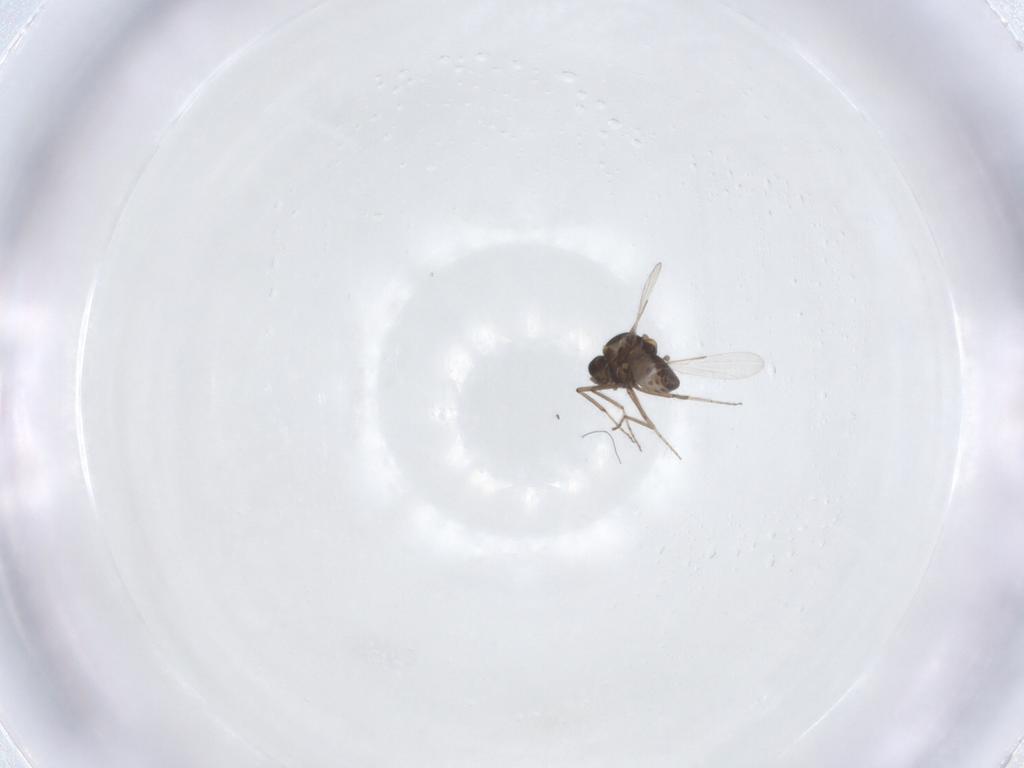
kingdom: Animalia
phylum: Arthropoda
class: Insecta
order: Diptera
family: Ceratopogonidae
